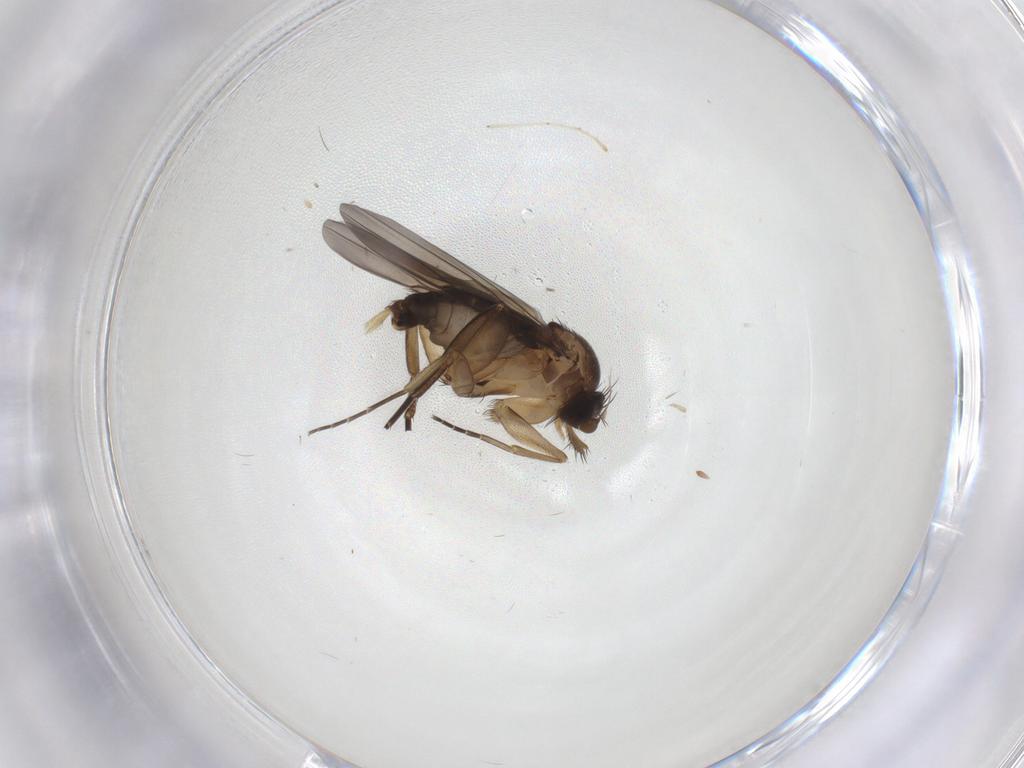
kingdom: Animalia
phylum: Arthropoda
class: Insecta
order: Diptera
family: Phoridae
